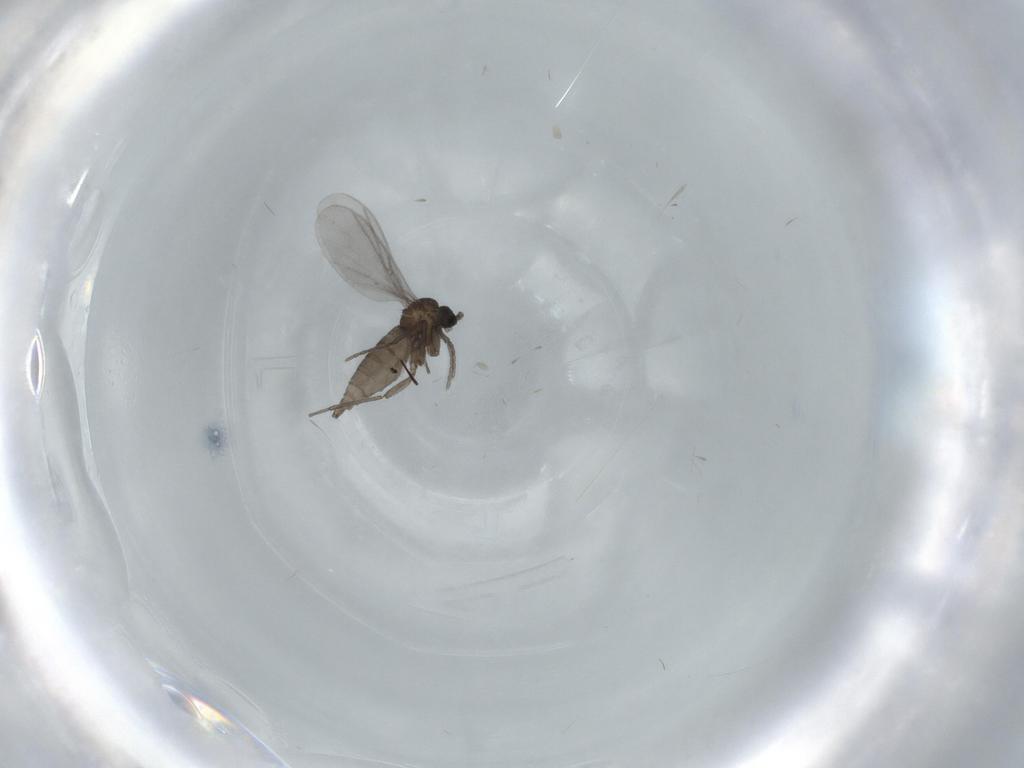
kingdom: Animalia
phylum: Arthropoda
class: Insecta
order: Diptera
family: Sciaridae
